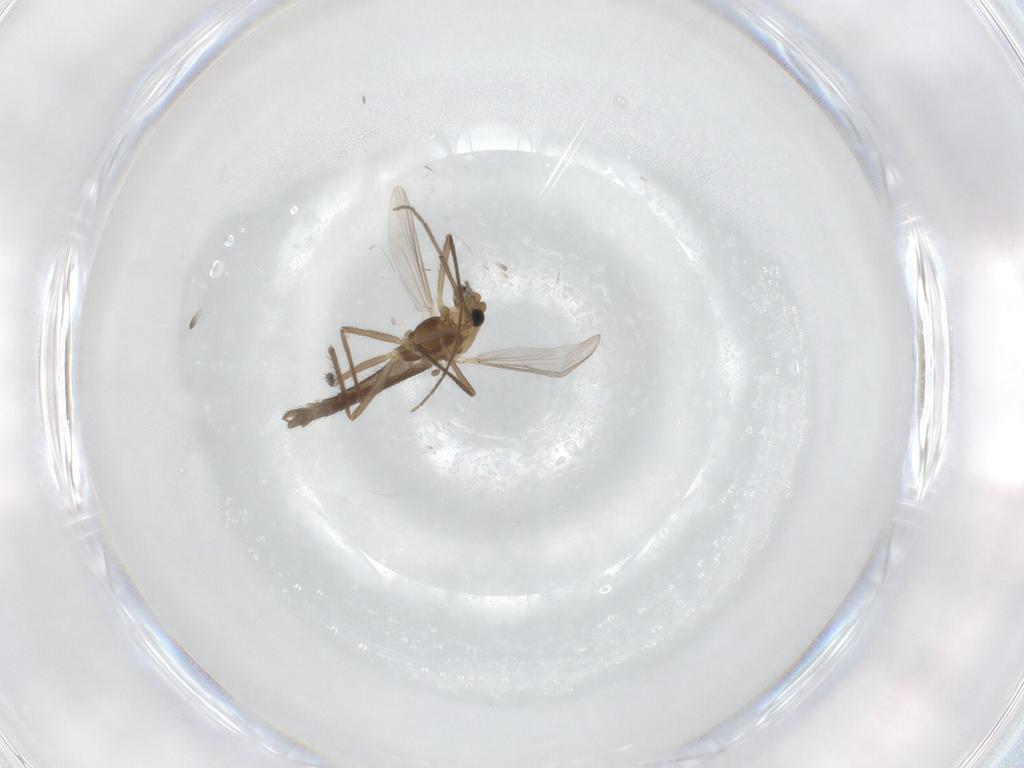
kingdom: Animalia
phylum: Arthropoda
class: Insecta
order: Diptera
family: Chironomidae
